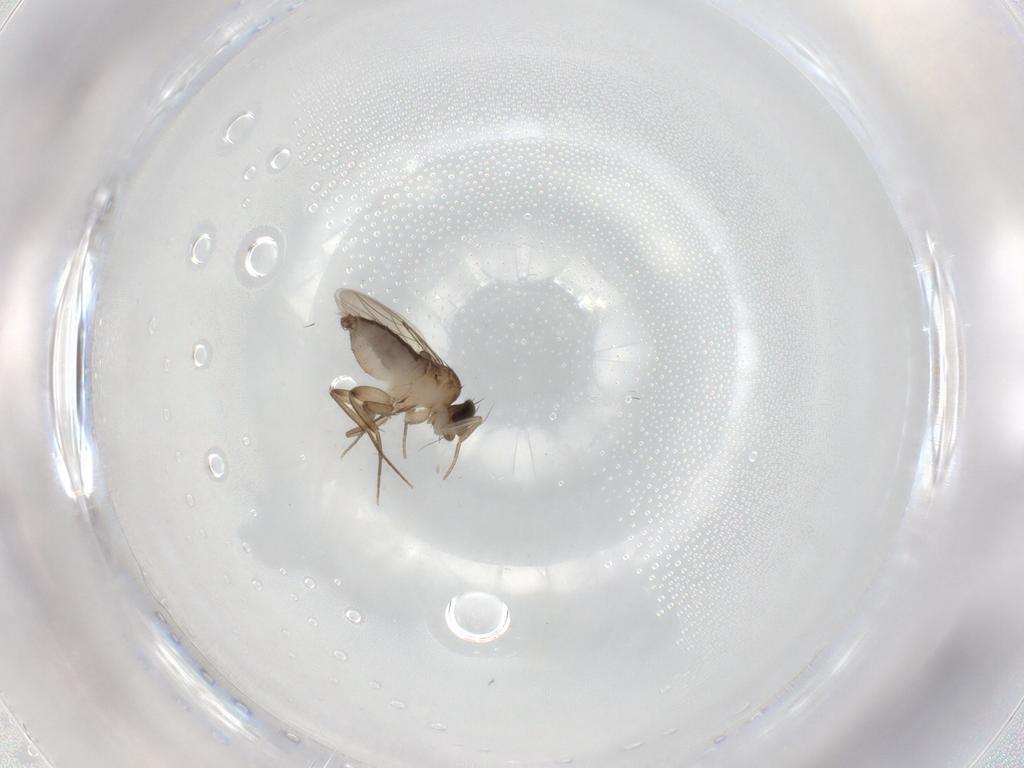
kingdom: Animalia
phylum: Arthropoda
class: Insecta
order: Diptera
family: Phoridae
